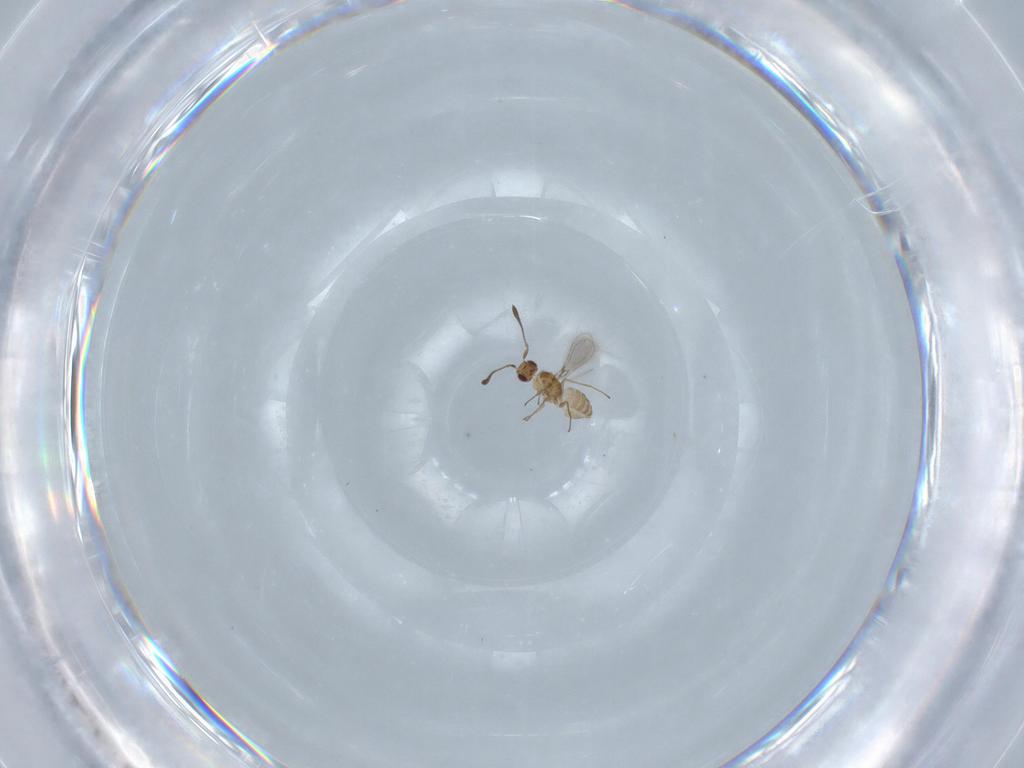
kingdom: Animalia
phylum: Arthropoda
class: Insecta
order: Hymenoptera
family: Mymaridae
